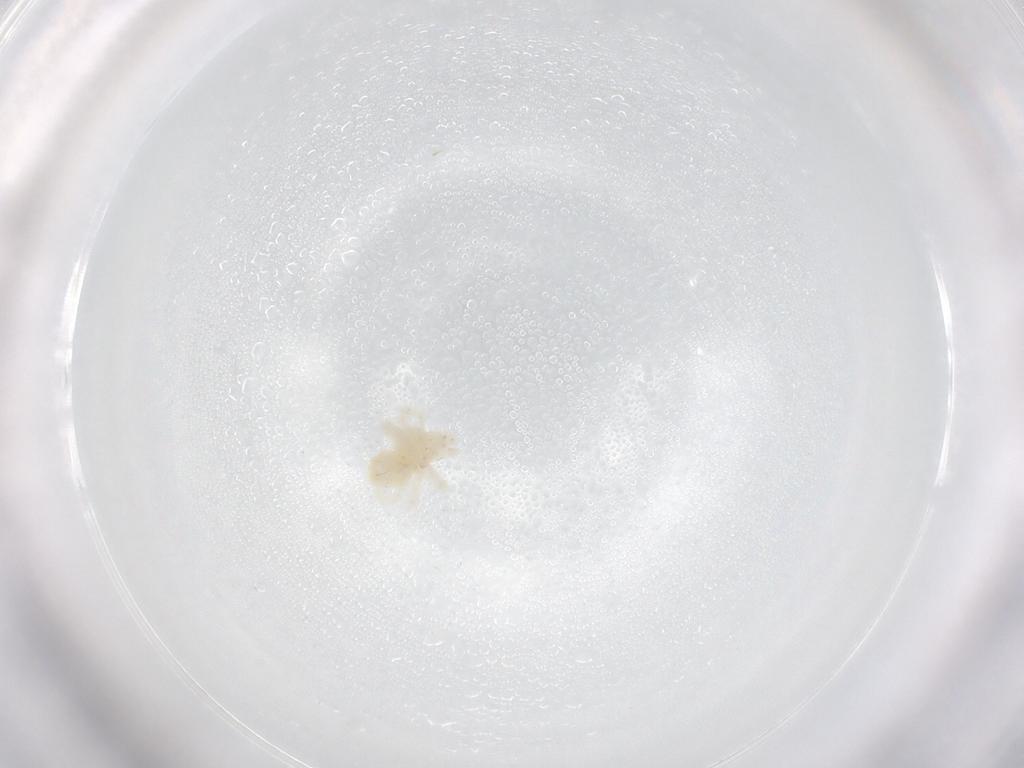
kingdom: Animalia
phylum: Arthropoda
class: Arachnida
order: Trombidiformes
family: Anystidae
